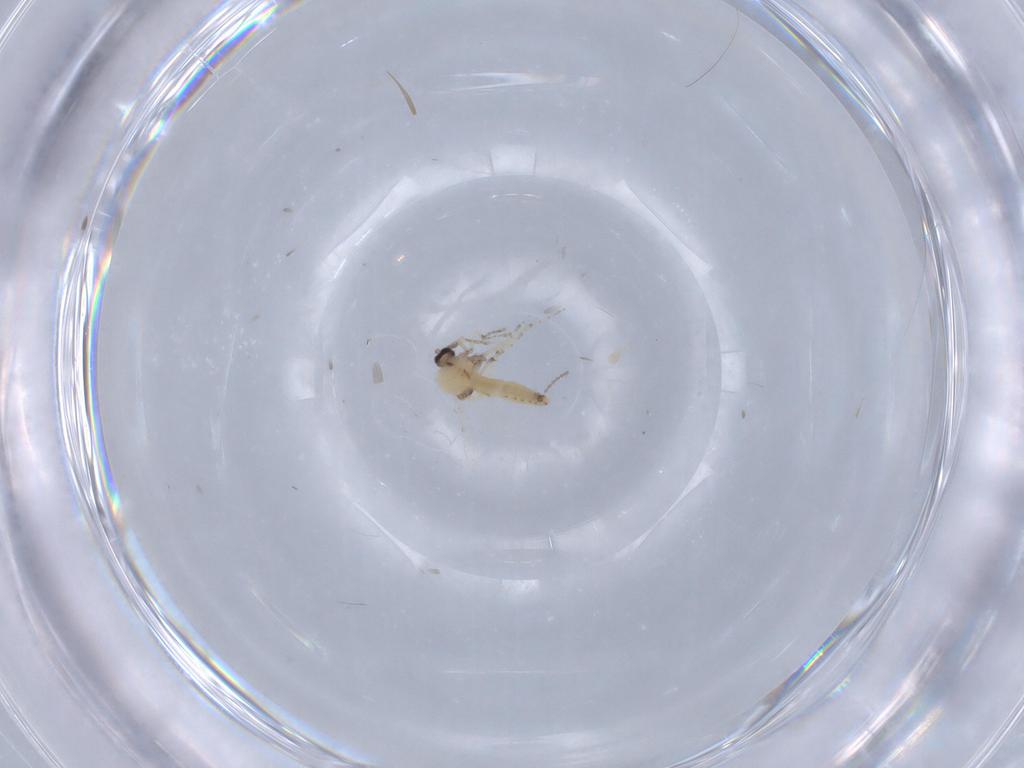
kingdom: Animalia
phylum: Arthropoda
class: Insecta
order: Diptera
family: Ceratopogonidae
